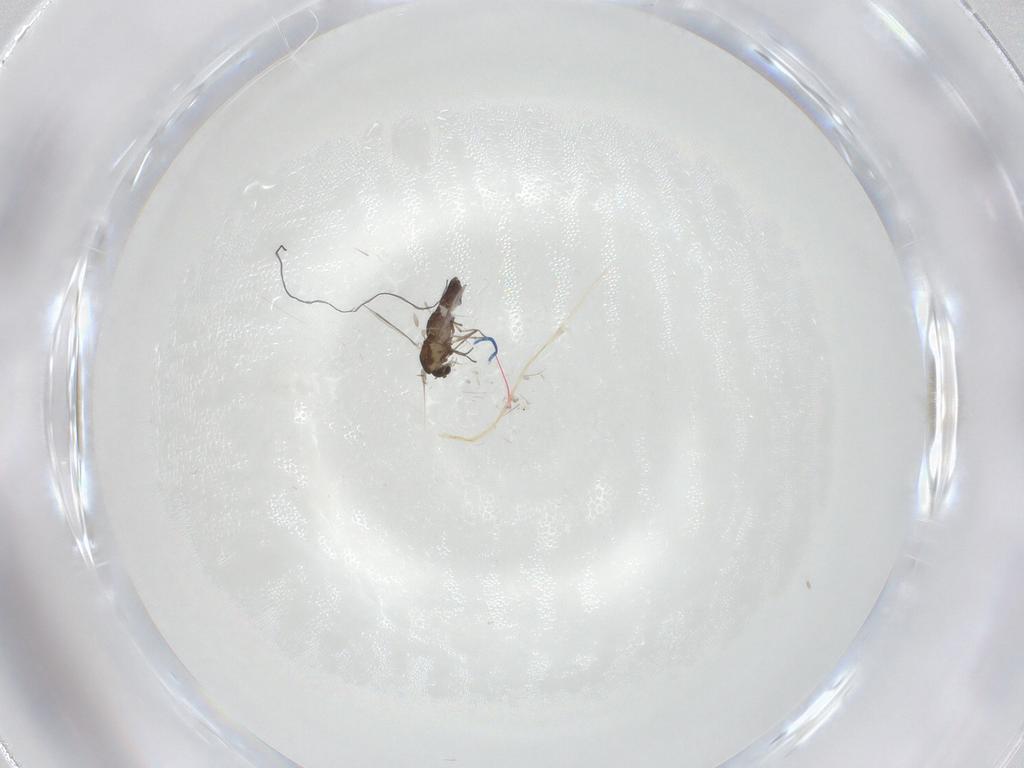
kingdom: Animalia
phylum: Arthropoda
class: Insecta
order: Diptera
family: Chironomidae
